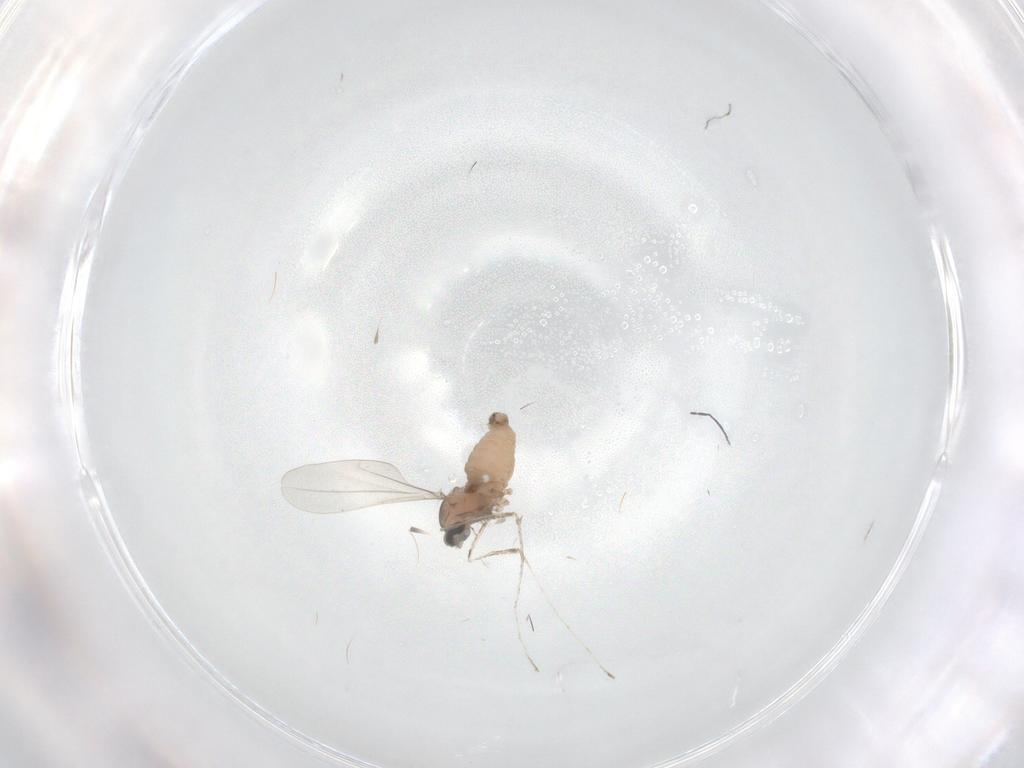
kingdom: Animalia
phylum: Arthropoda
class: Insecta
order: Diptera
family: Cecidomyiidae
